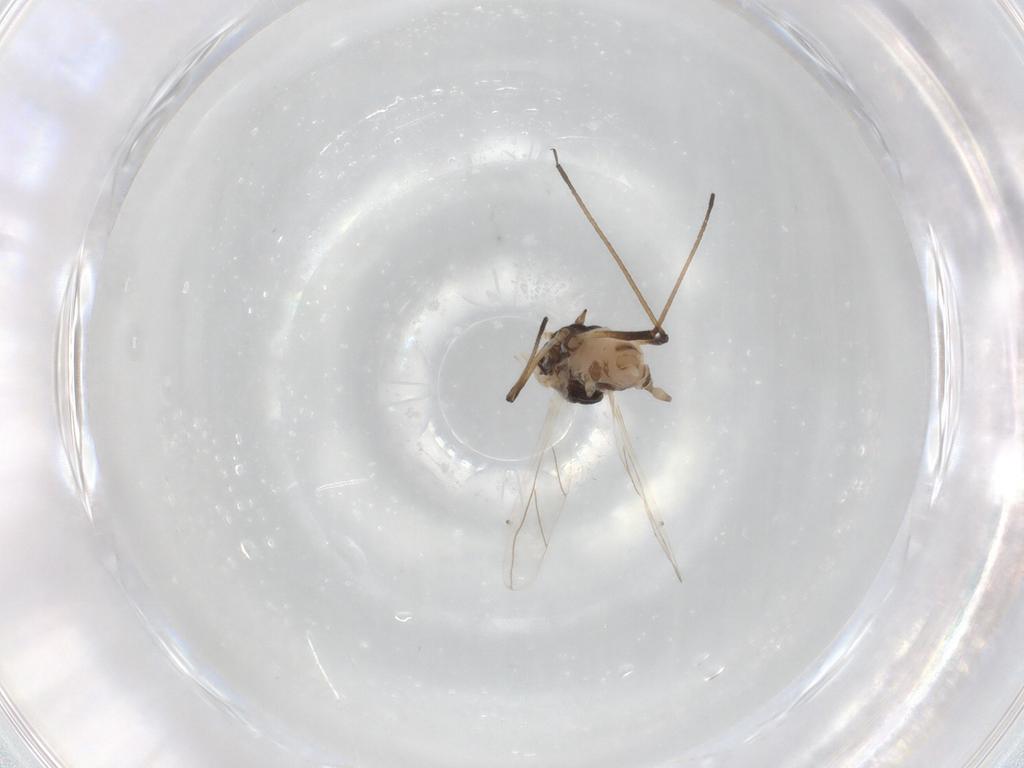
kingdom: Animalia
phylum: Arthropoda
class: Insecta
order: Hemiptera
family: Aphididae
